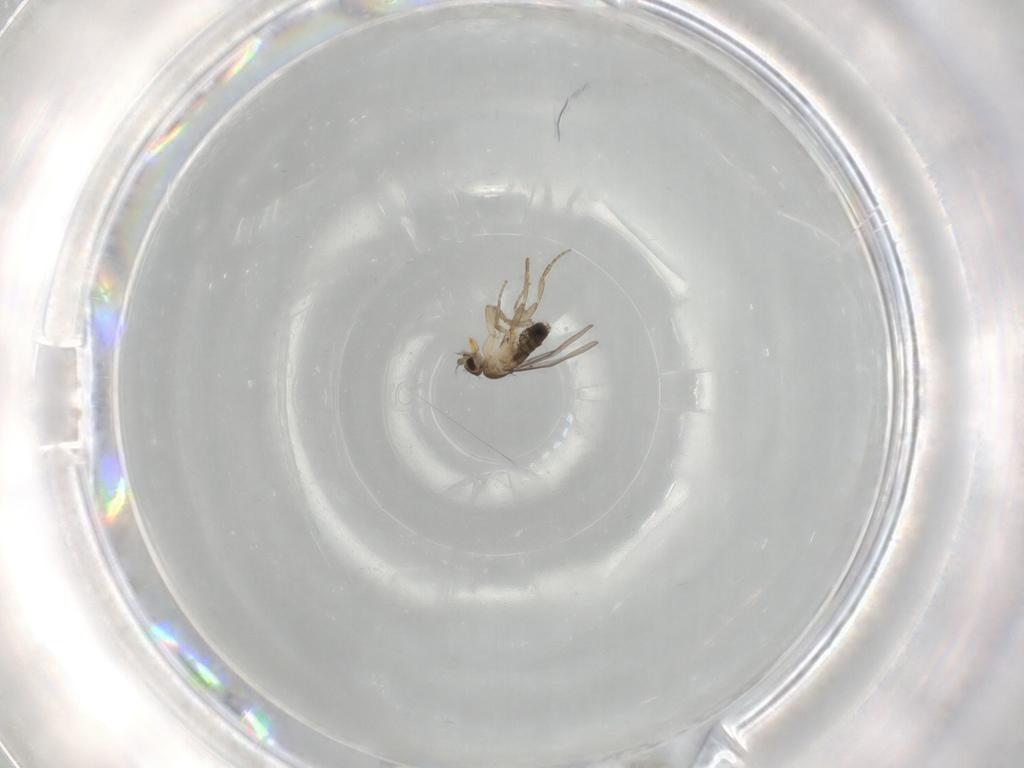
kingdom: Animalia
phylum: Arthropoda
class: Insecta
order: Diptera
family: Phoridae
